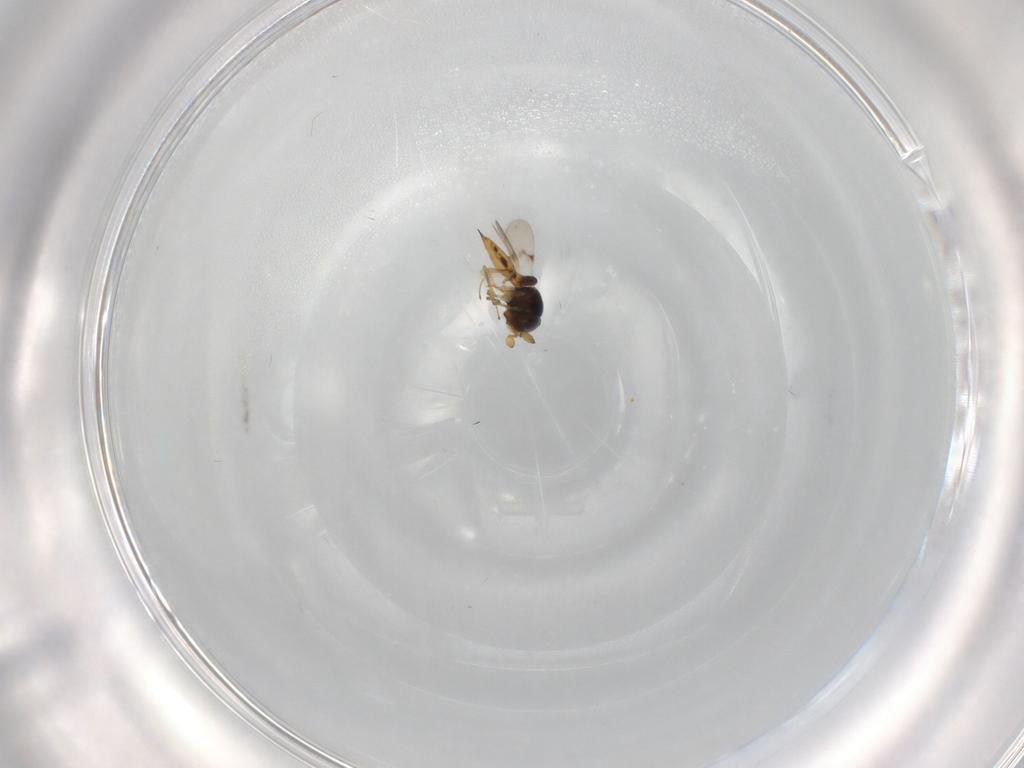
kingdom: Animalia
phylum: Arthropoda
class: Insecta
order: Hymenoptera
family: Scelionidae
